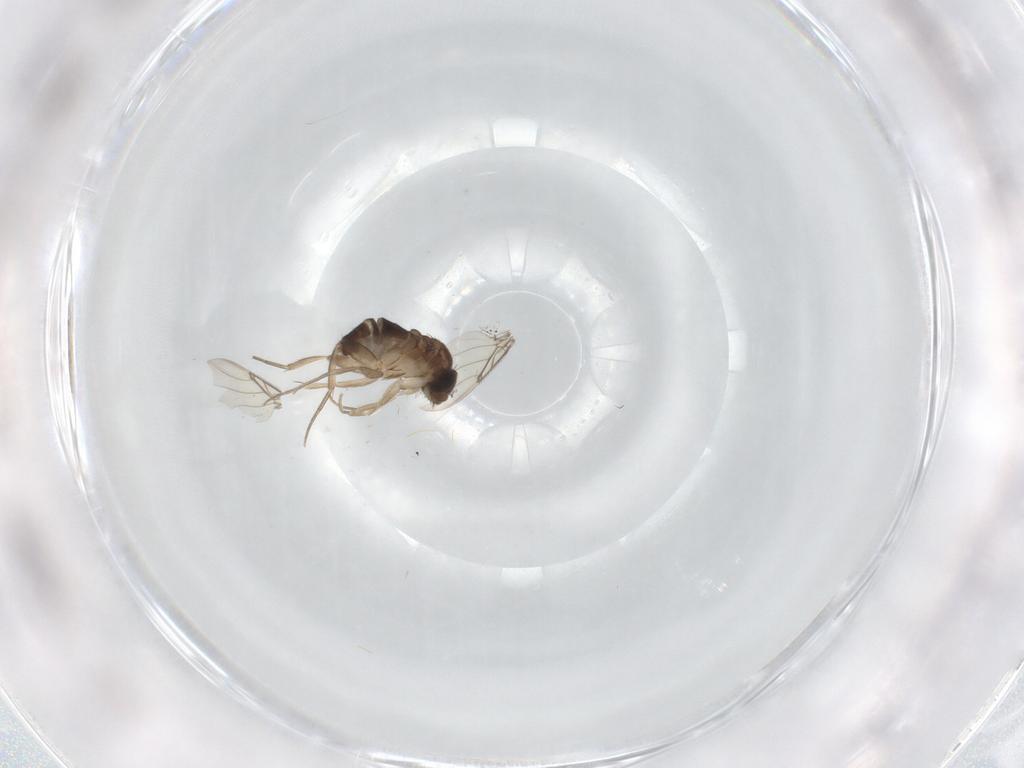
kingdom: Animalia
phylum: Arthropoda
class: Insecta
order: Diptera
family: Phoridae
